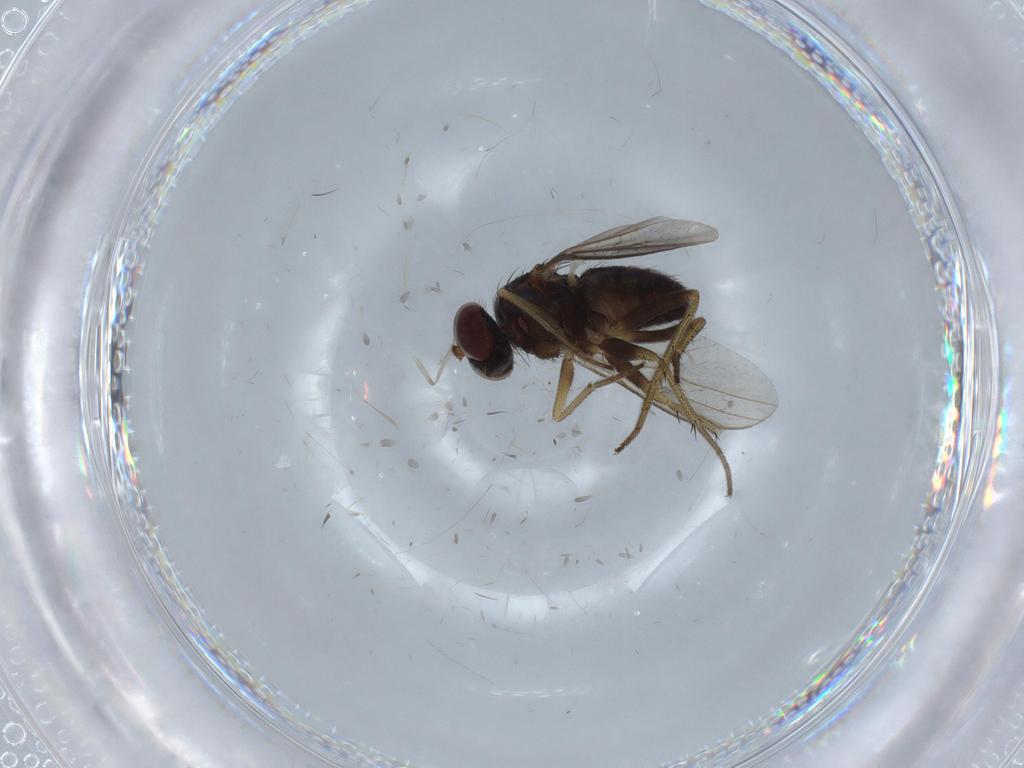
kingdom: Animalia
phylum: Arthropoda
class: Insecta
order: Diptera
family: Psychodidae
